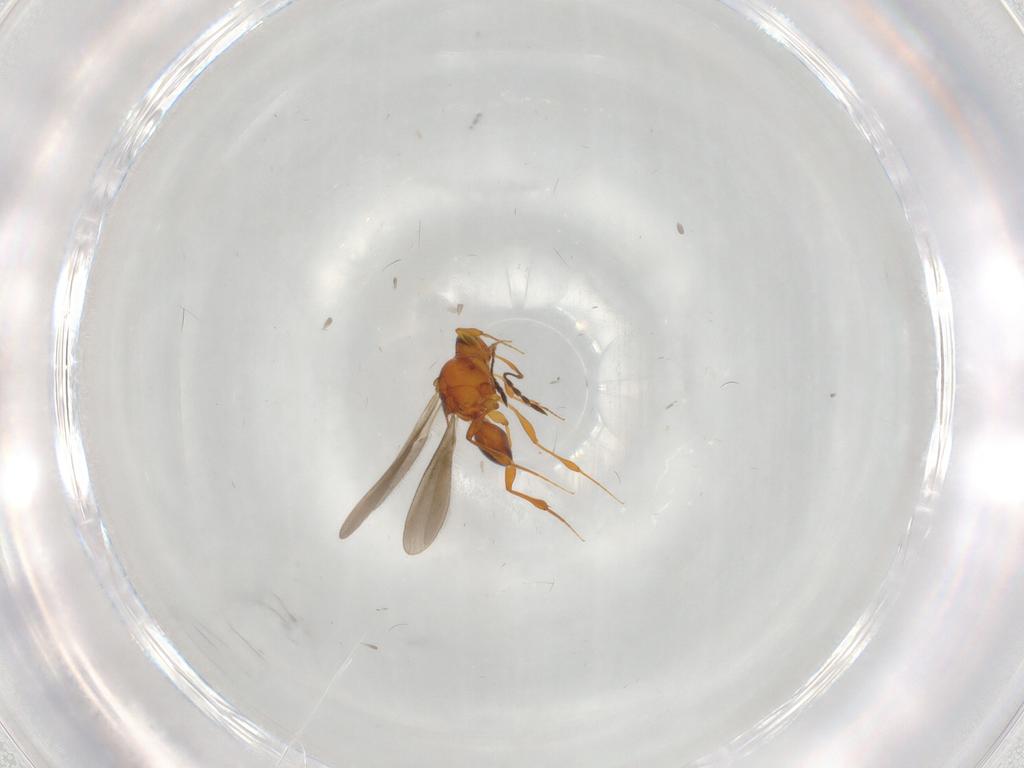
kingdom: Animalia
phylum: Arthropoda
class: Insecta
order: Hymenoptera
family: Platygastridae
